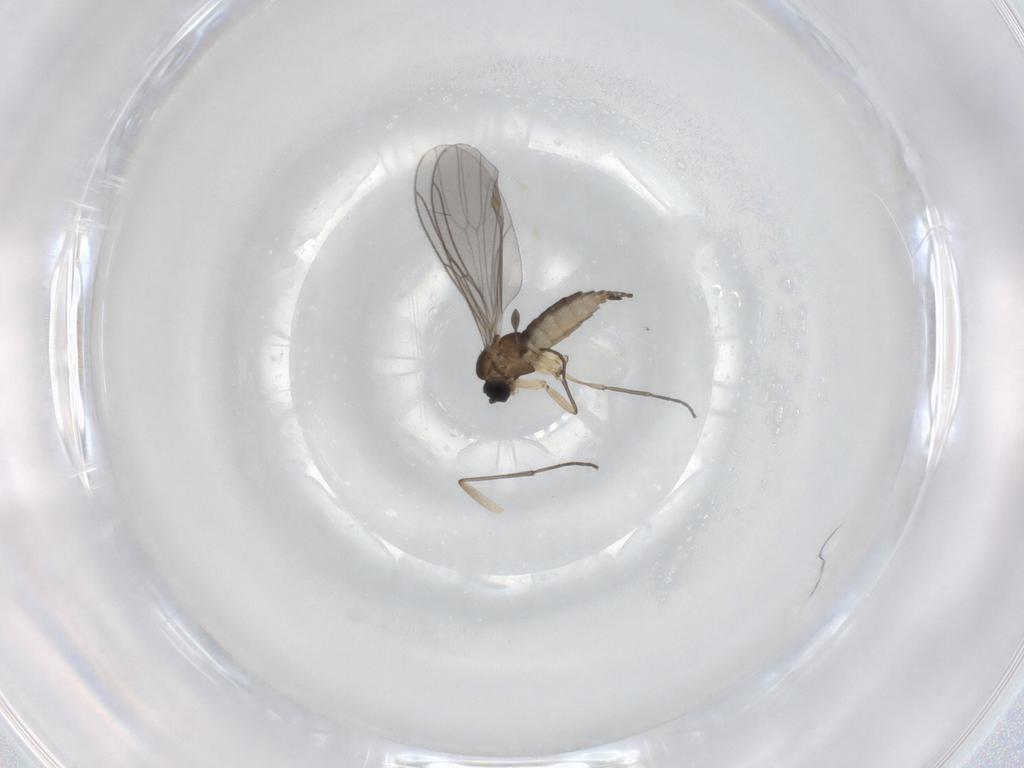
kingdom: Animalia
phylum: Arthropoda
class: Insecta
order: Diptera
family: Sciaridae
